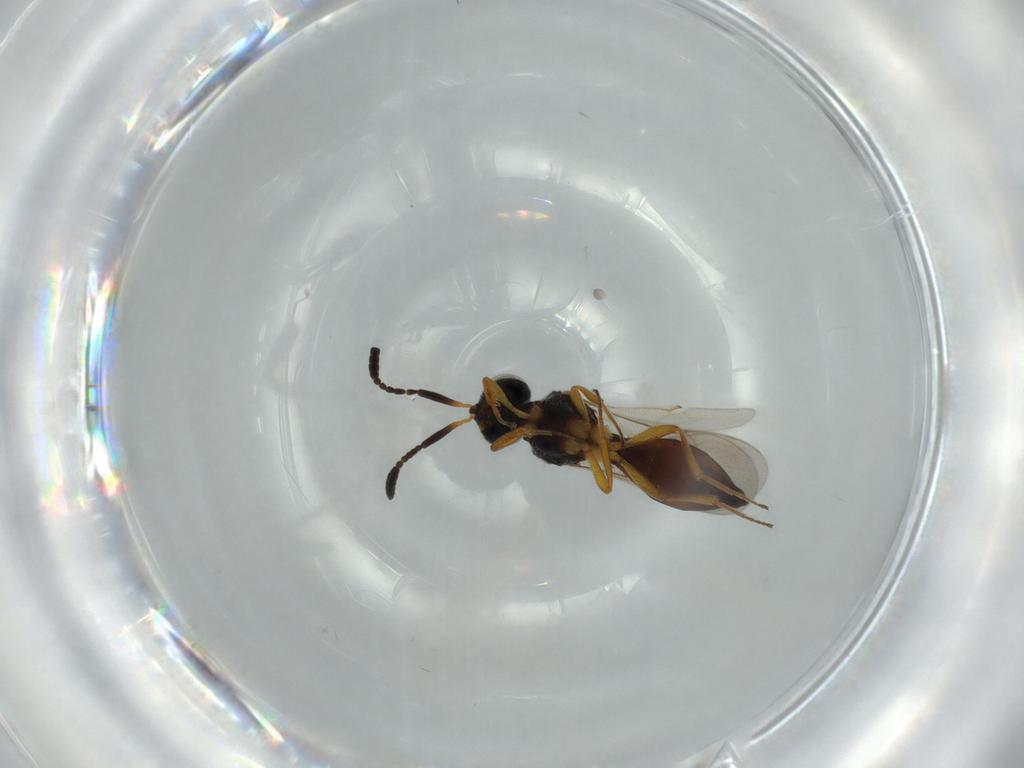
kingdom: Animalia
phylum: Arthropoda
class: Insecta
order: Hymenoptera
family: Scelionidae
